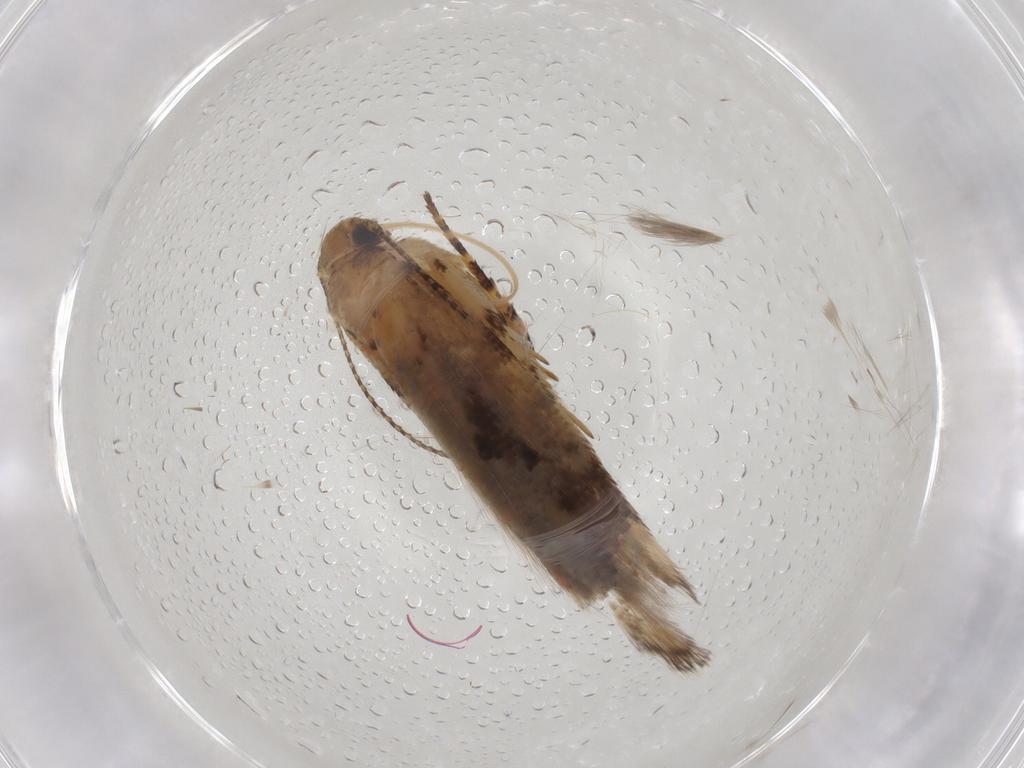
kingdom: Animalia
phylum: Arthropoda
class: Insecta
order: Lepidoptera
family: Gelechiidae
